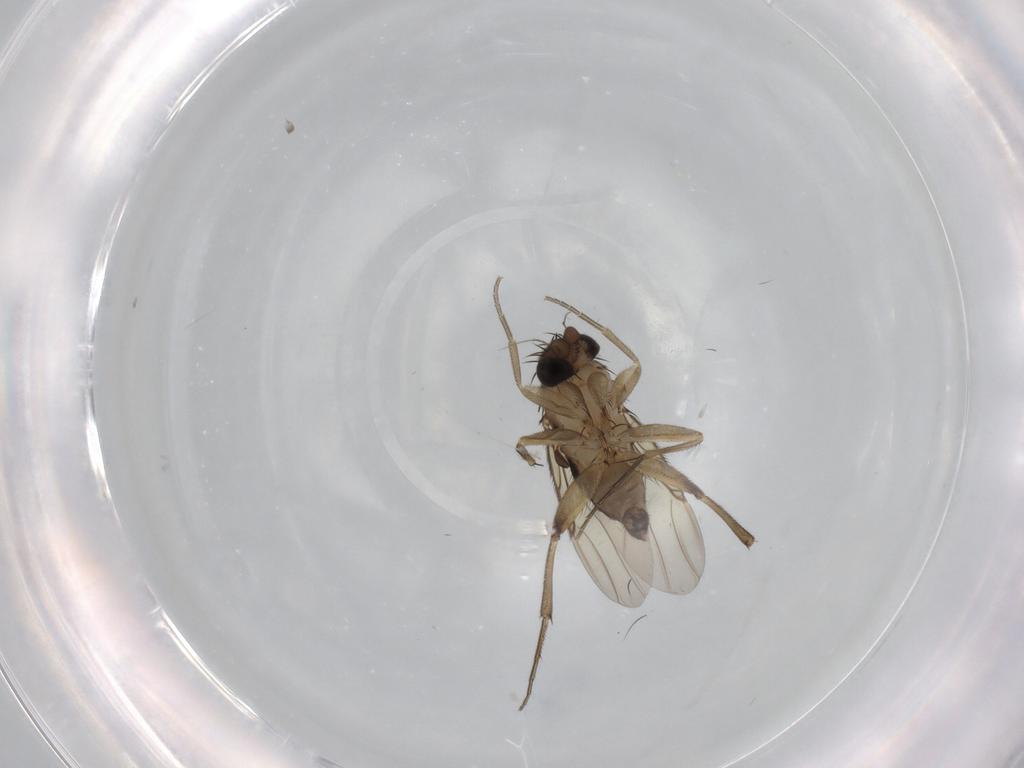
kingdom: Animalia
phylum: Arthropoda
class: Insecta
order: Diptera
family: Phoridae
